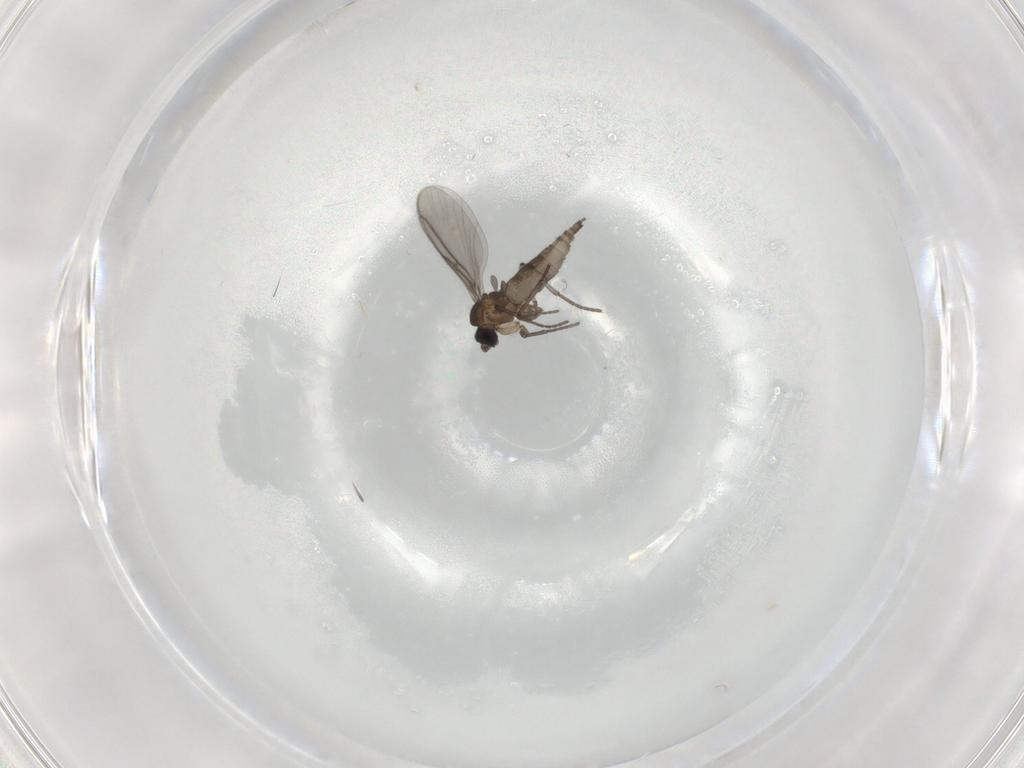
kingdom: Animalia
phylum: Arthropoda
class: Insecta
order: Diptera
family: Sciaridae
